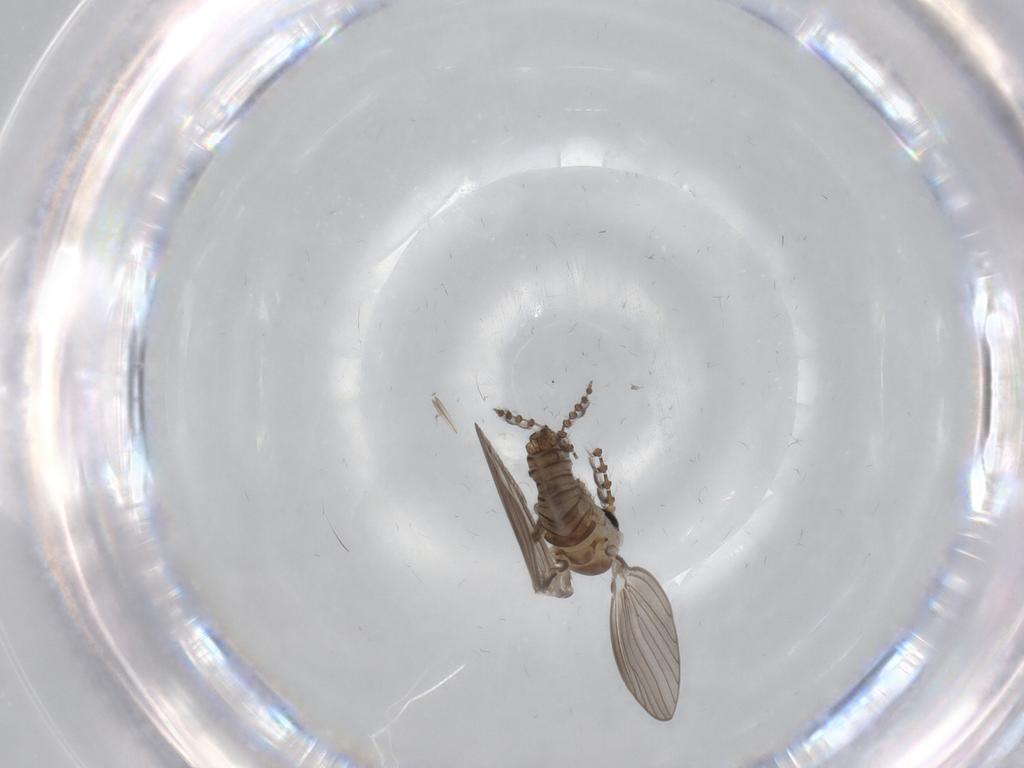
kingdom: Animalia
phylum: Arthropoda
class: Insecta
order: Diptera
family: Psychodidae
